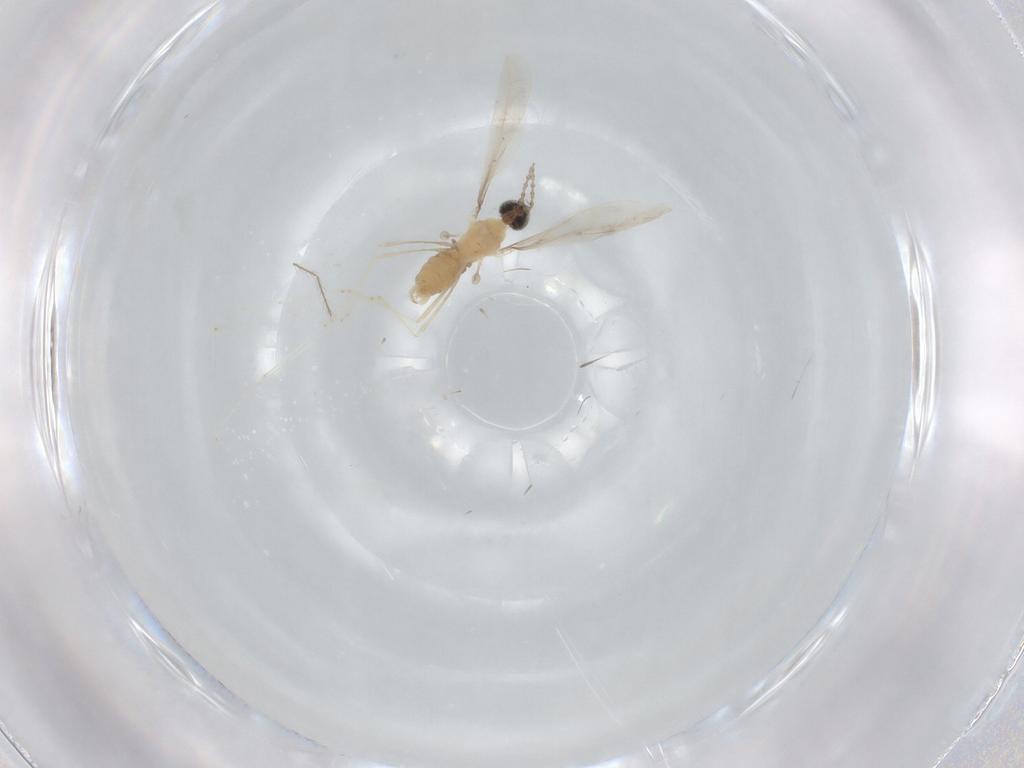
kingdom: Animalia
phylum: Arthropoda
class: Insecta
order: Diptera
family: Cecidomyiidae
